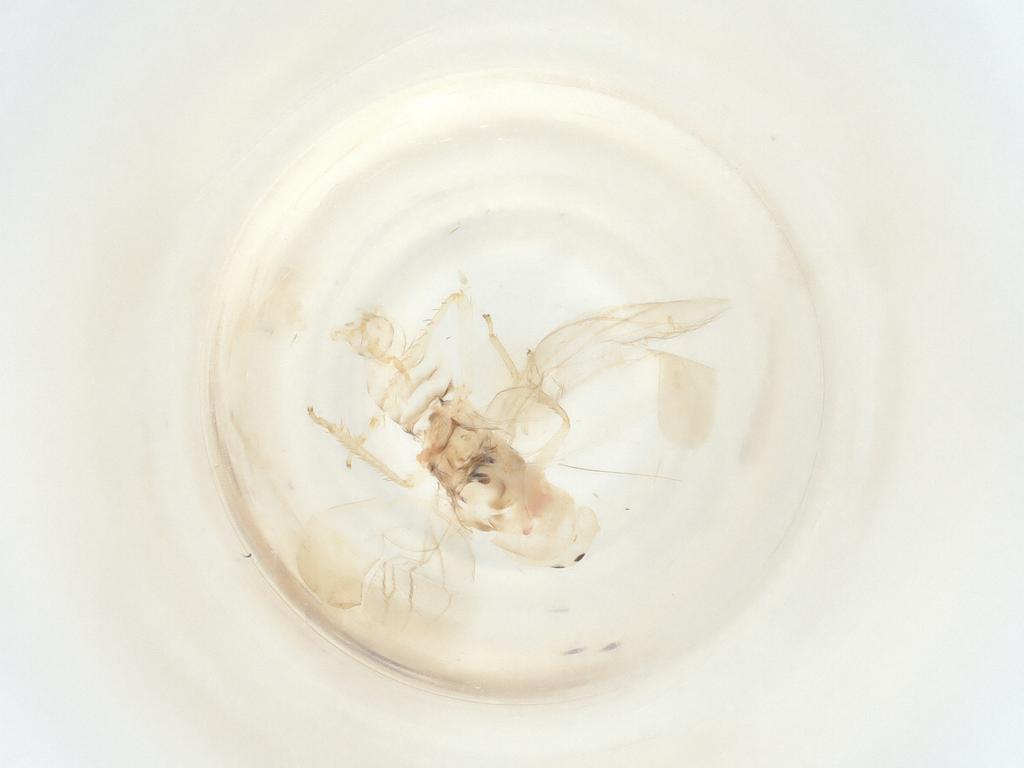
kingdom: Animalia
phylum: Arthropoda
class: Insecta
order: Hemiptera
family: Cicadellidae
